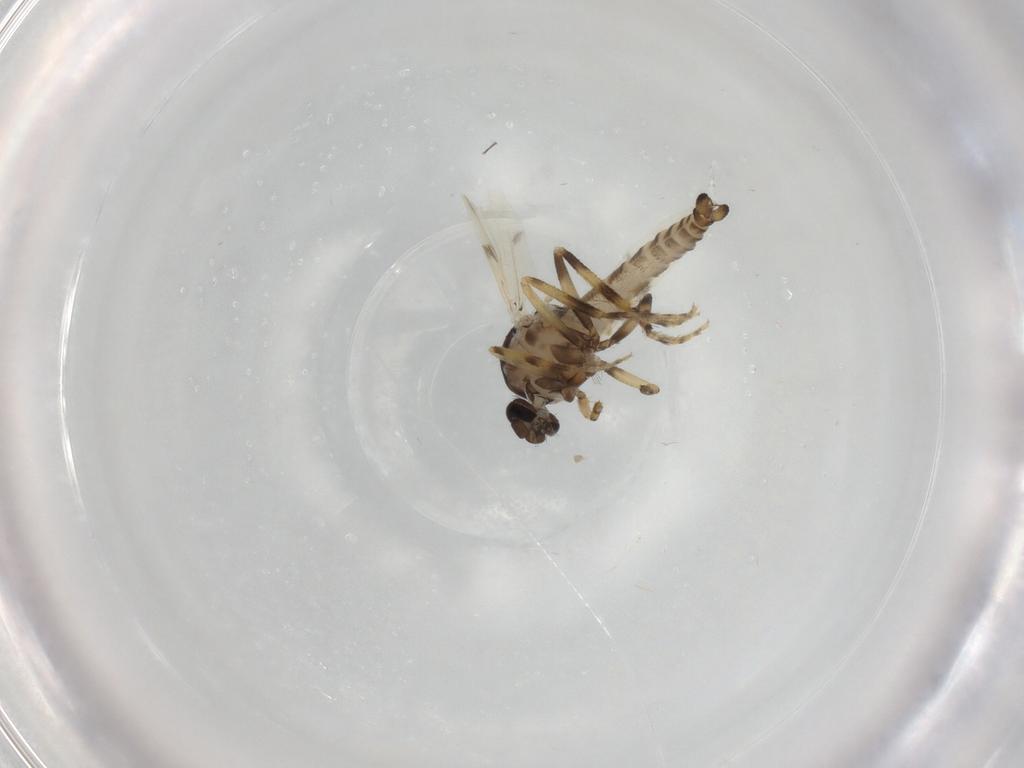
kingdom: Animalia
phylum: Arthropoda
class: Insecta
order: Diptera
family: Ceratopogonidae
